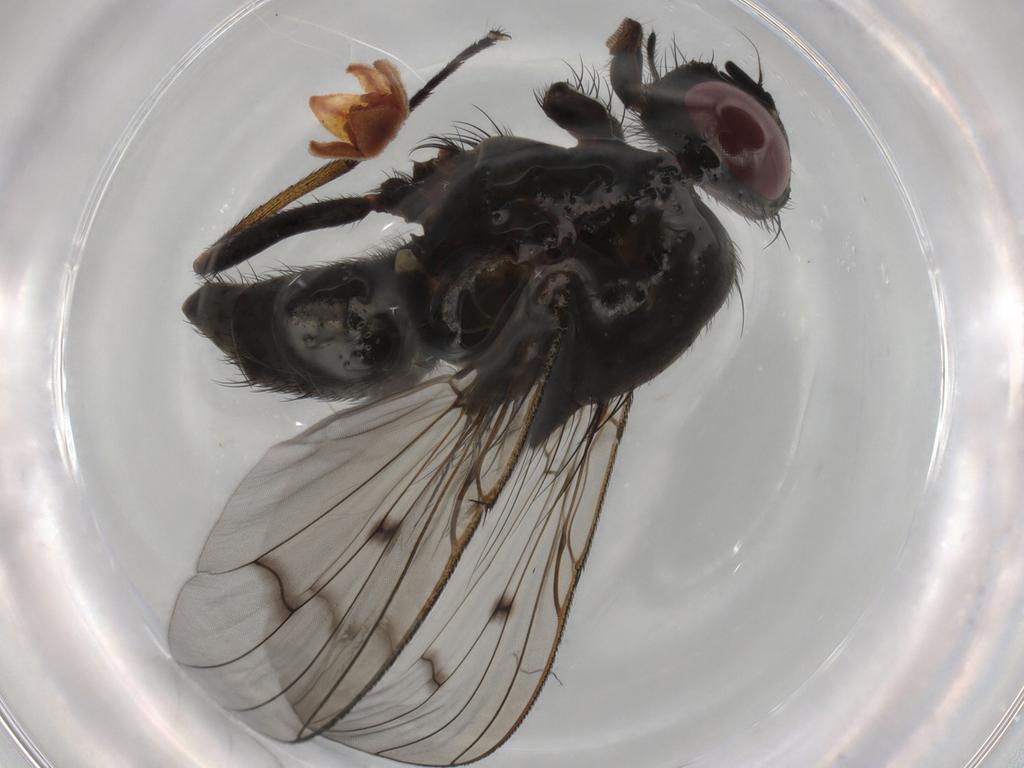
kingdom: Animalia
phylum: Arthropoda
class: Insecta
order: Diptera
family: Muscidae
